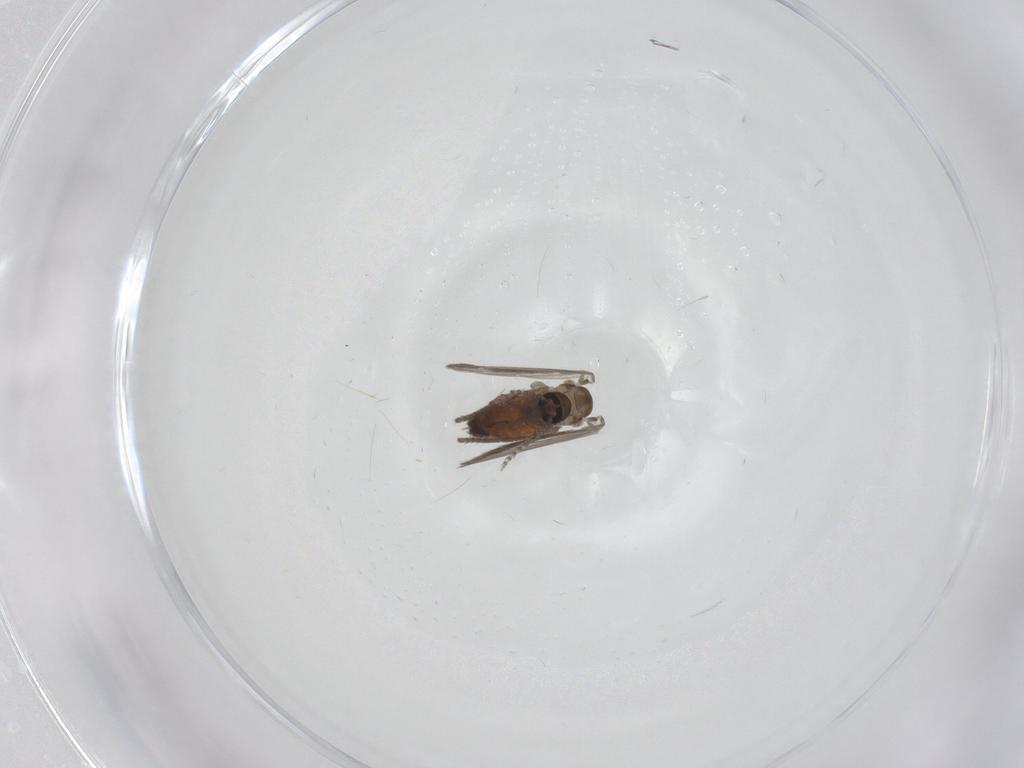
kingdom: Animalia
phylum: Arthropoda
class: Insecta
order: Diptera
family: Psychodidae
